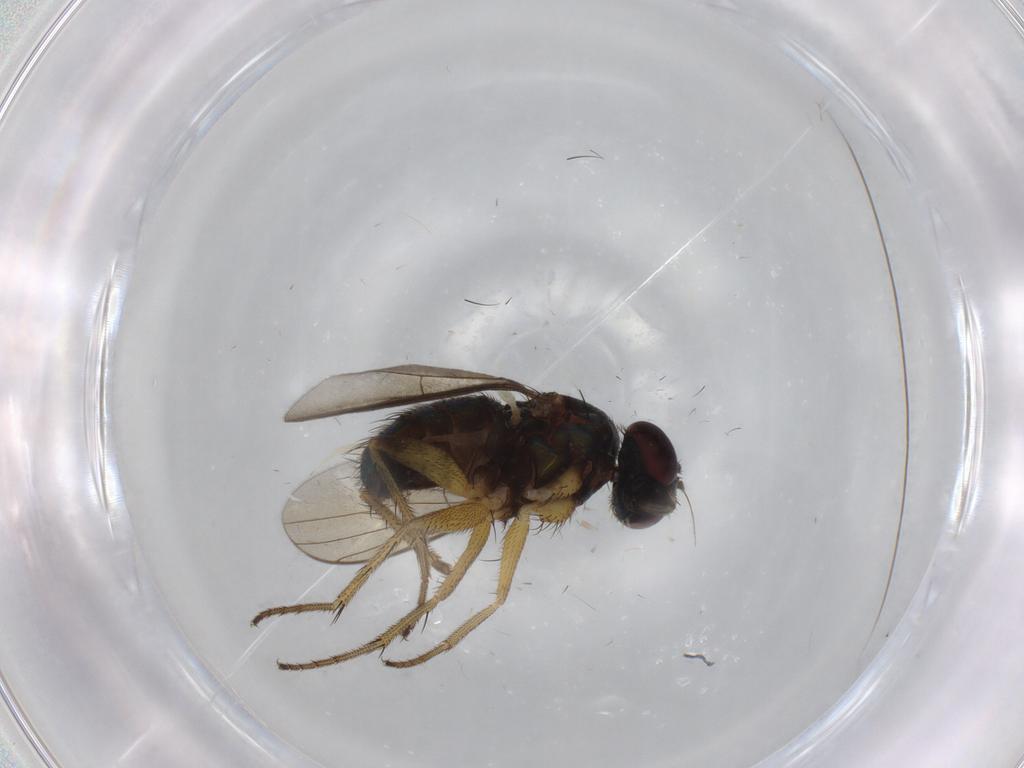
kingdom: Animalia
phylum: Arthropoda
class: Insecta
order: Diptera
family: Dolichopodidae
